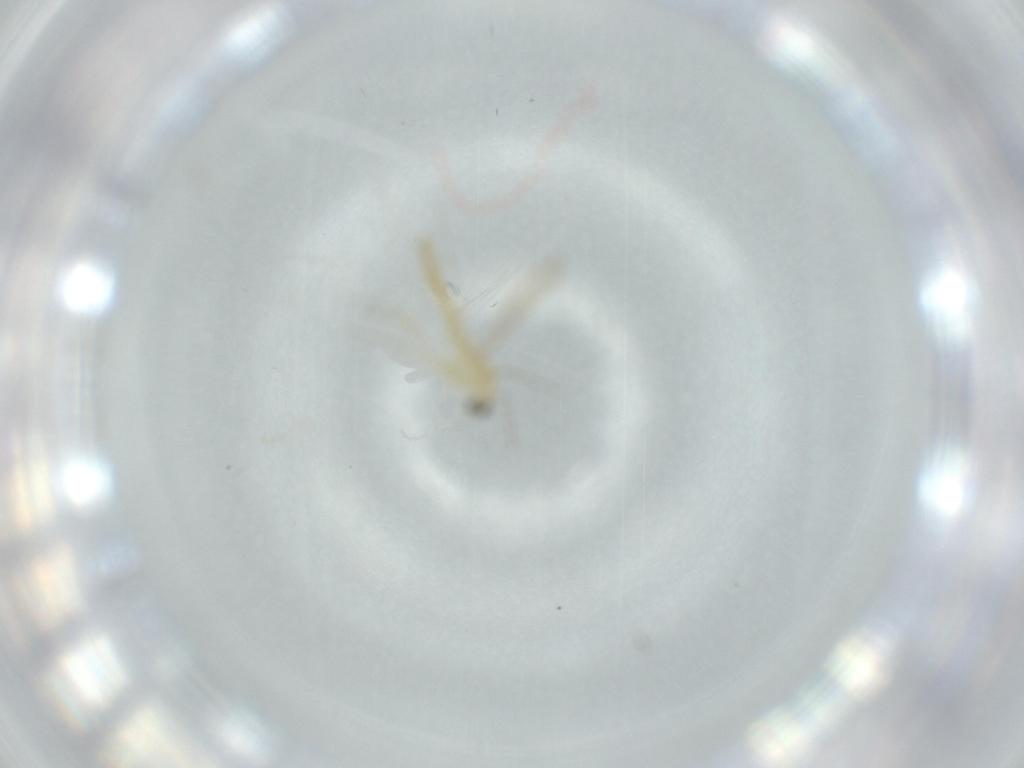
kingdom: Animalia
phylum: Arthropoda
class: Insecta
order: Diptera
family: Chironomidae
